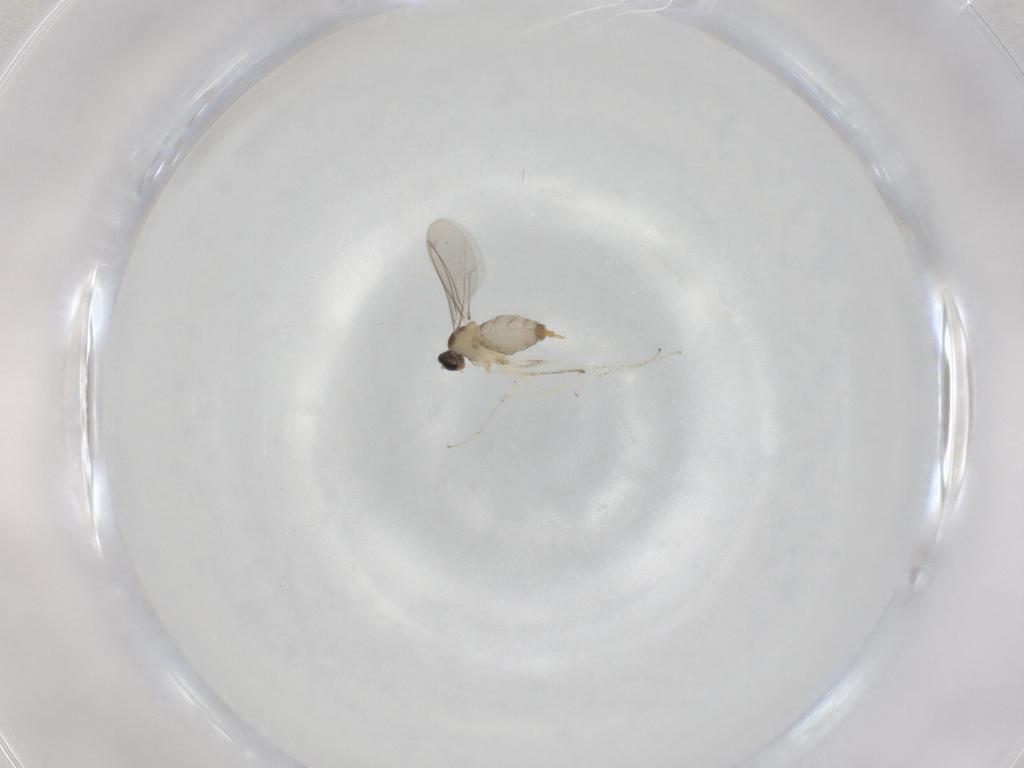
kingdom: Animalia
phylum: Arthropoda
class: Insecta
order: Diptera
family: Cecidomyiidae
